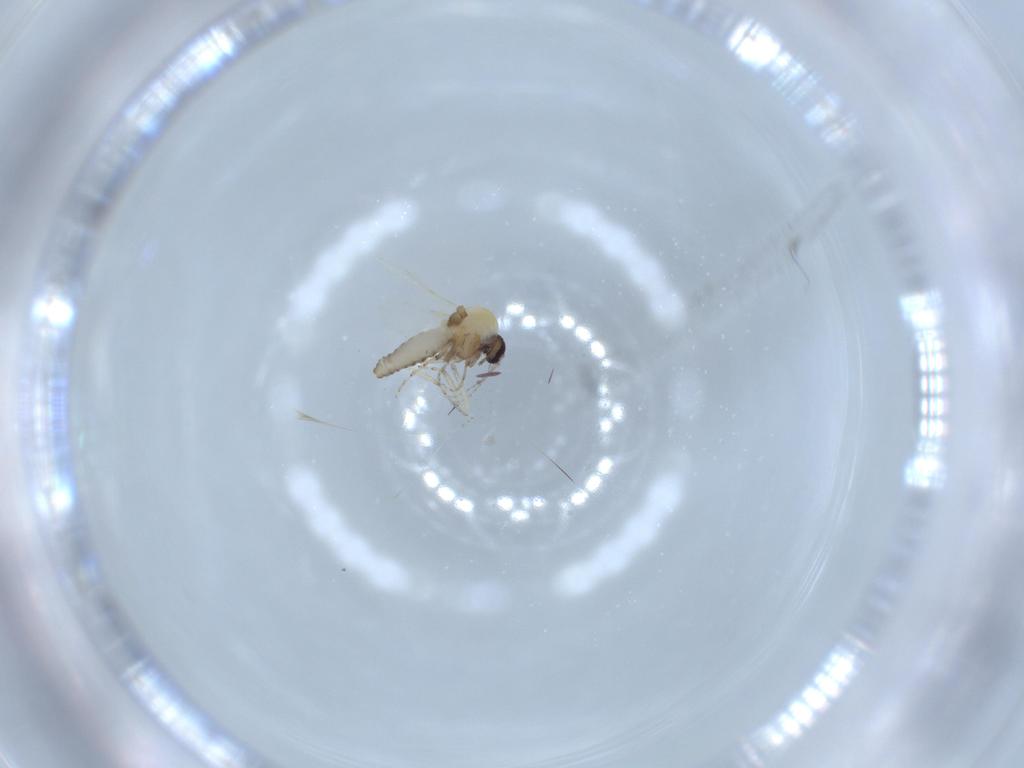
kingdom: Animalia
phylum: Arthropoda
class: Insecta
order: Diptera
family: Ceratopogonidae
